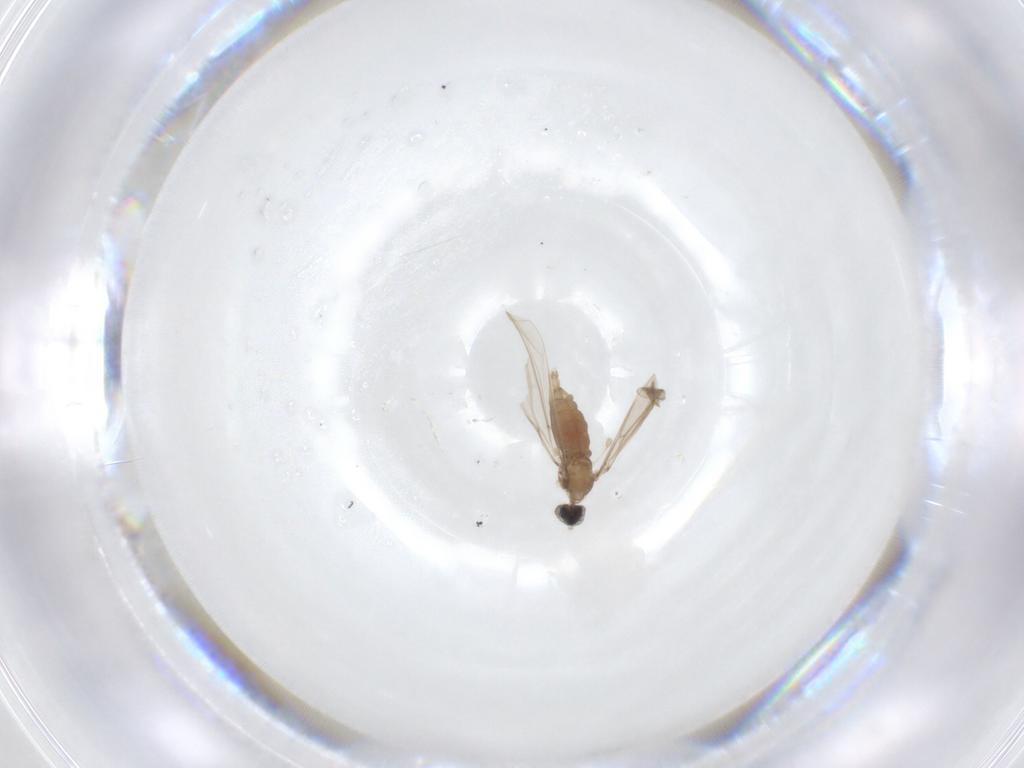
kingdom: Animalia
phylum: Arthropoda
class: Insecta
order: Diptera
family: Cecidomyiidae
